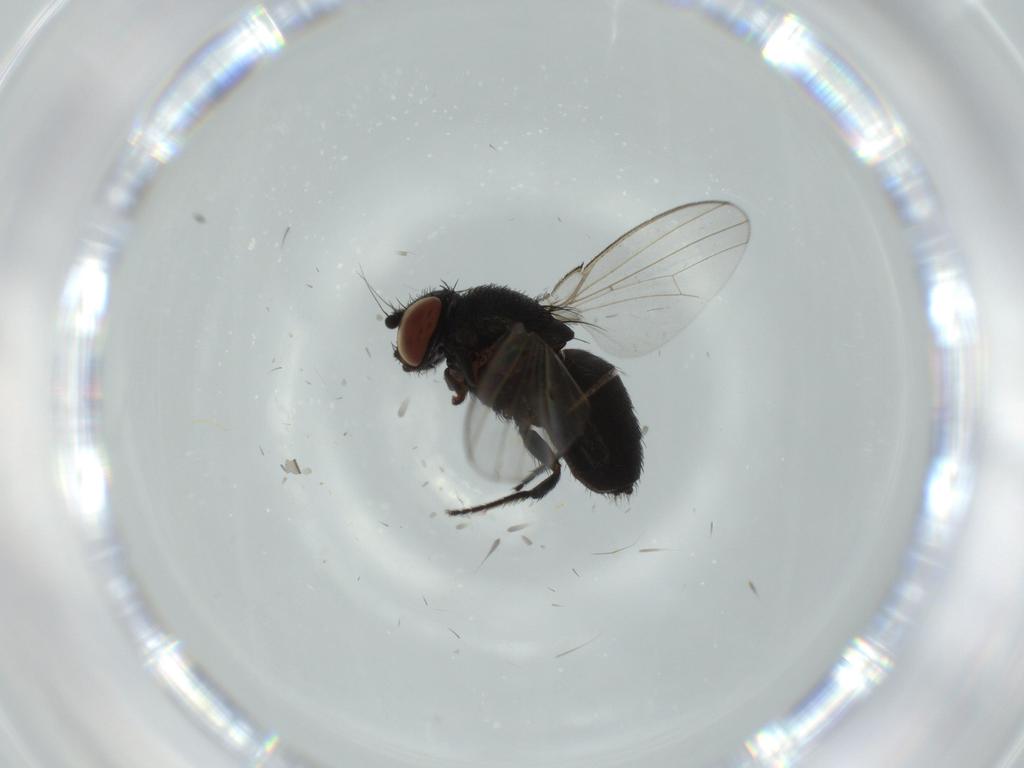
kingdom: Animalia
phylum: Arthropoda
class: Insecta
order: Diptera
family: Milichiidae
